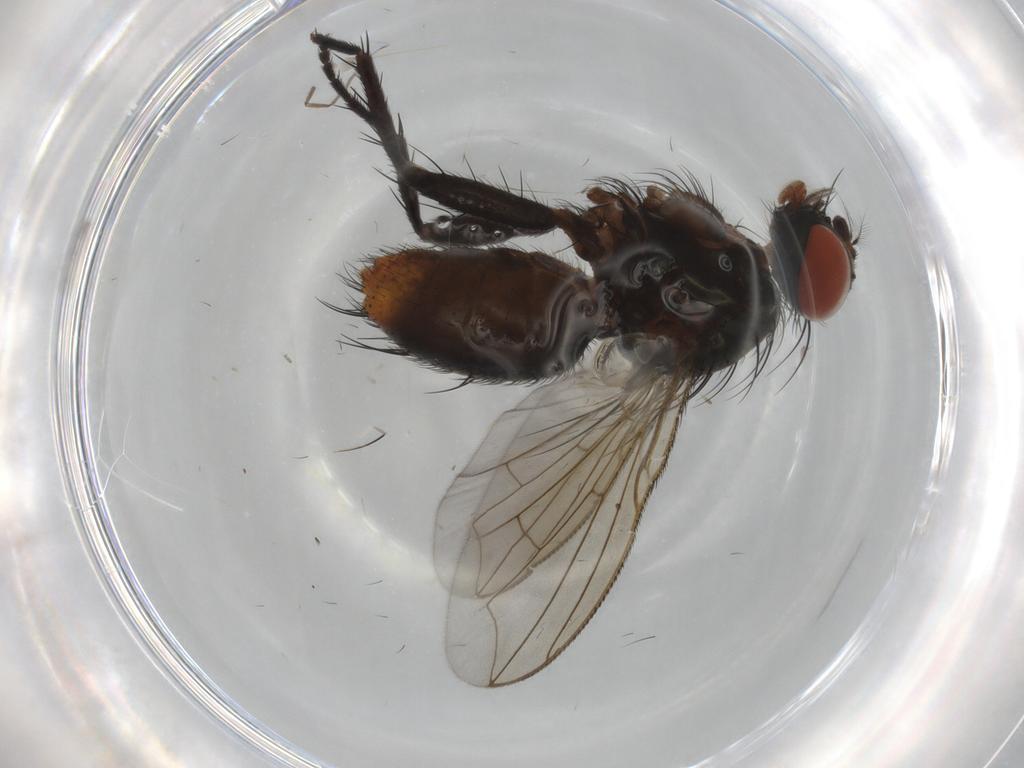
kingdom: Animalia
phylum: Arthropoda
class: Insecta
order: Diptera
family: Sarcophagidae
